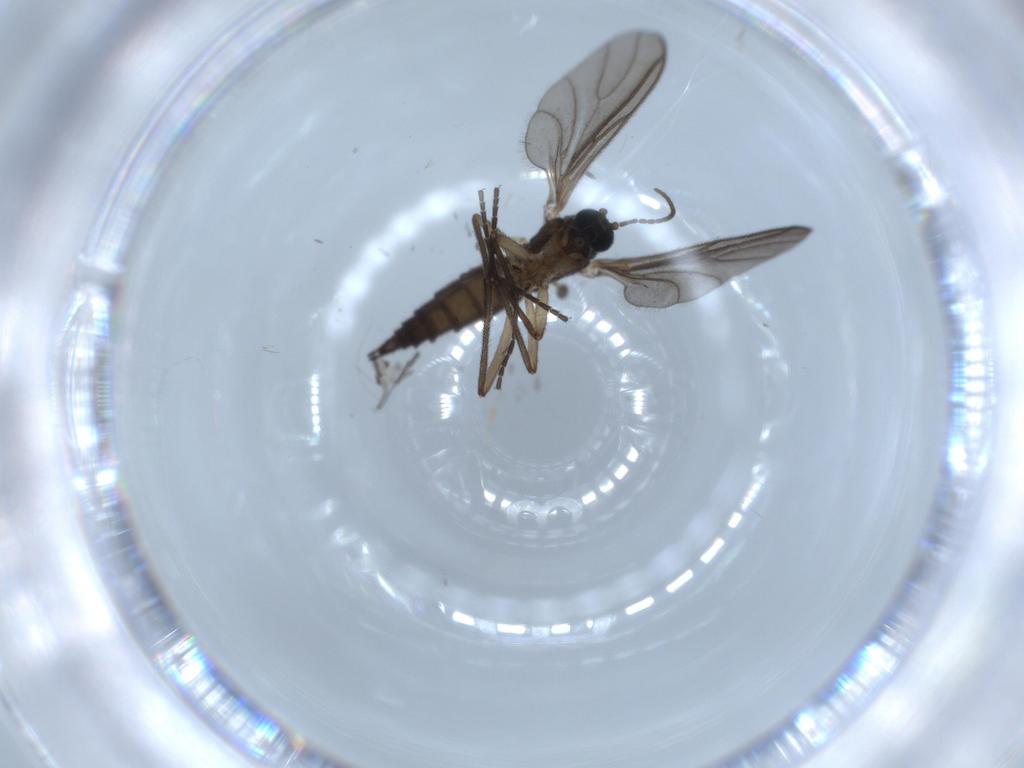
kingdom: Animalia
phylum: Arthropoda
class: Insecta
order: Diptera
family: Sciaridae
